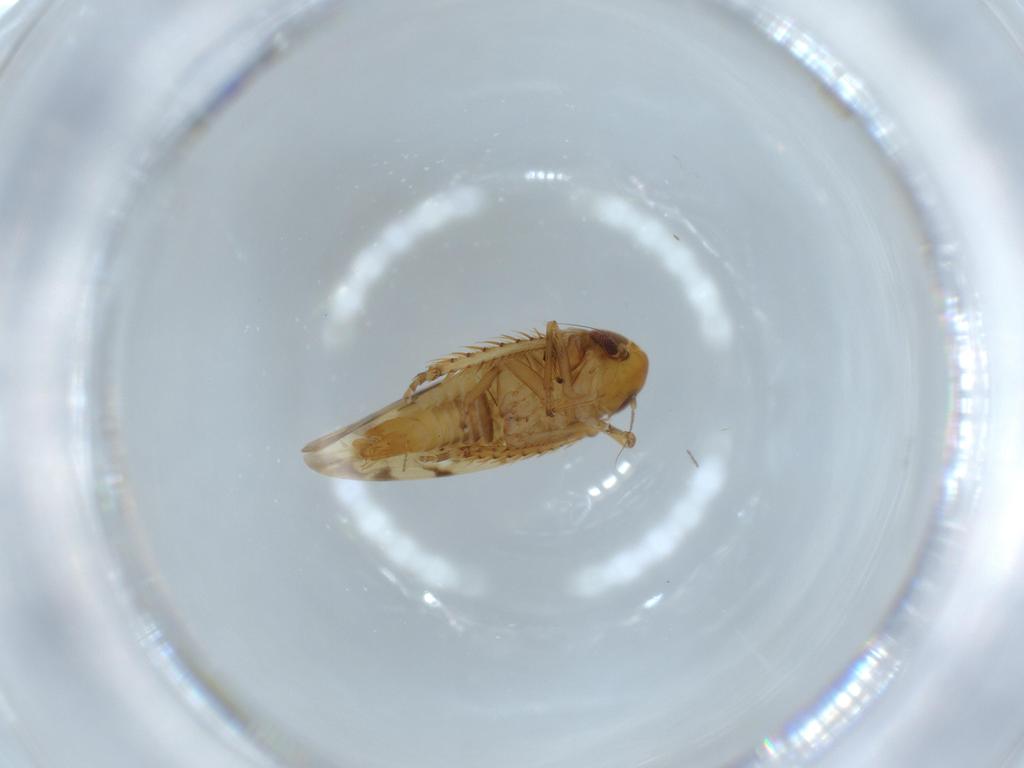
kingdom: Animalia
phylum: Arthropoda
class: Insecta
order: Hemiptera
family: Cicadellidae
